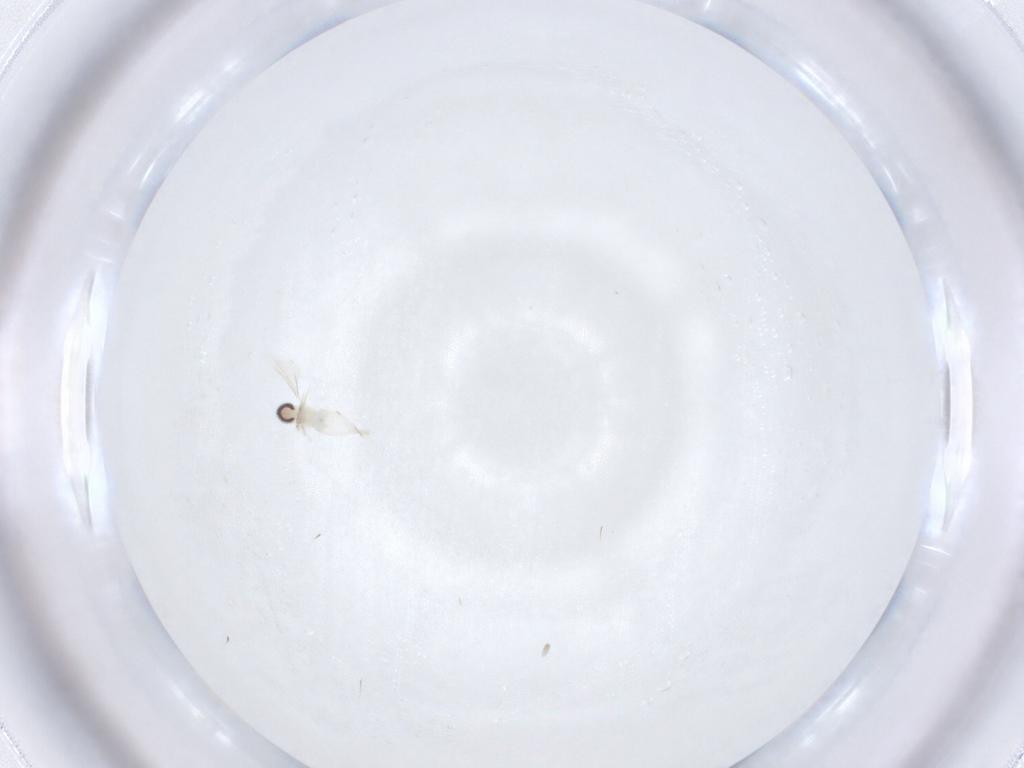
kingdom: Animalia
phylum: Arthropoda
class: Insecta
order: Diptera
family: Cecidomyiidae
